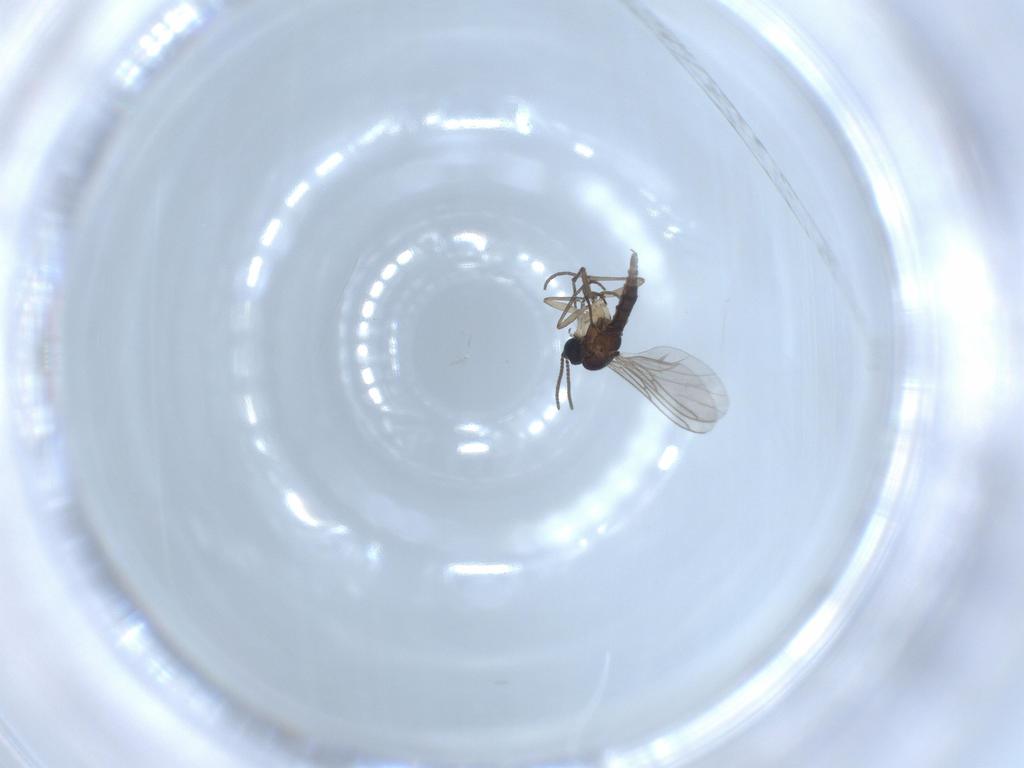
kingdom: Animalia
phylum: Arthropoda
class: Insecta
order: Diptera
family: Sciaridae
